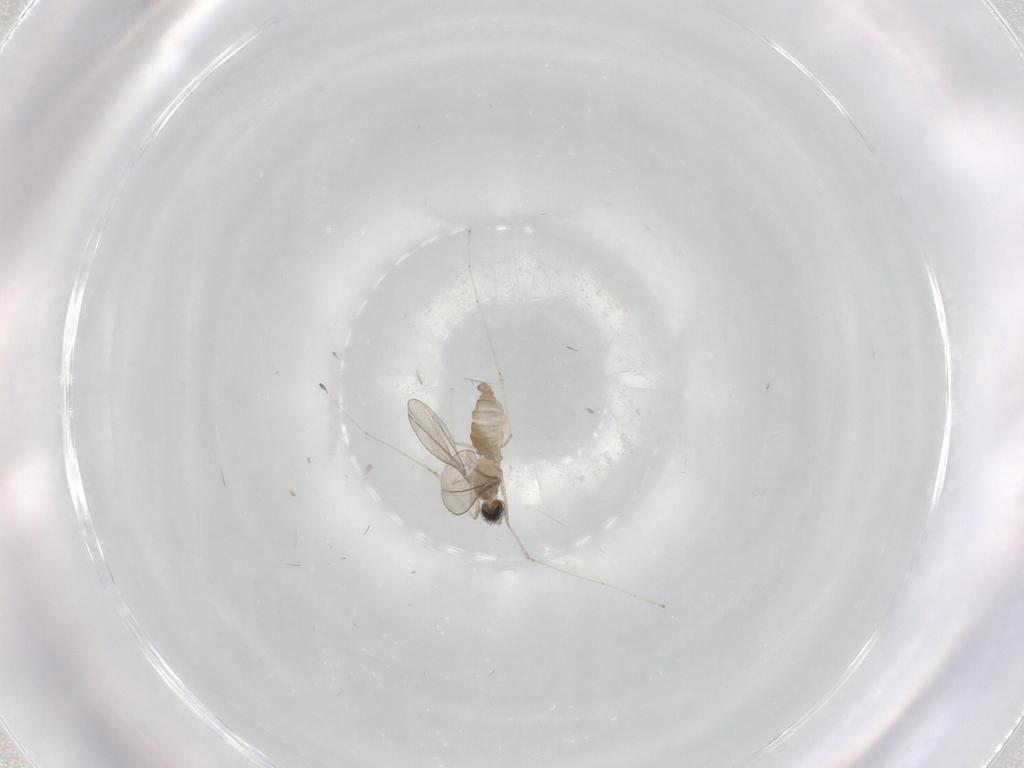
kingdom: Animalia
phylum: Arthropoda
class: Insecta
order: Diptera
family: Cecidomyiidae
